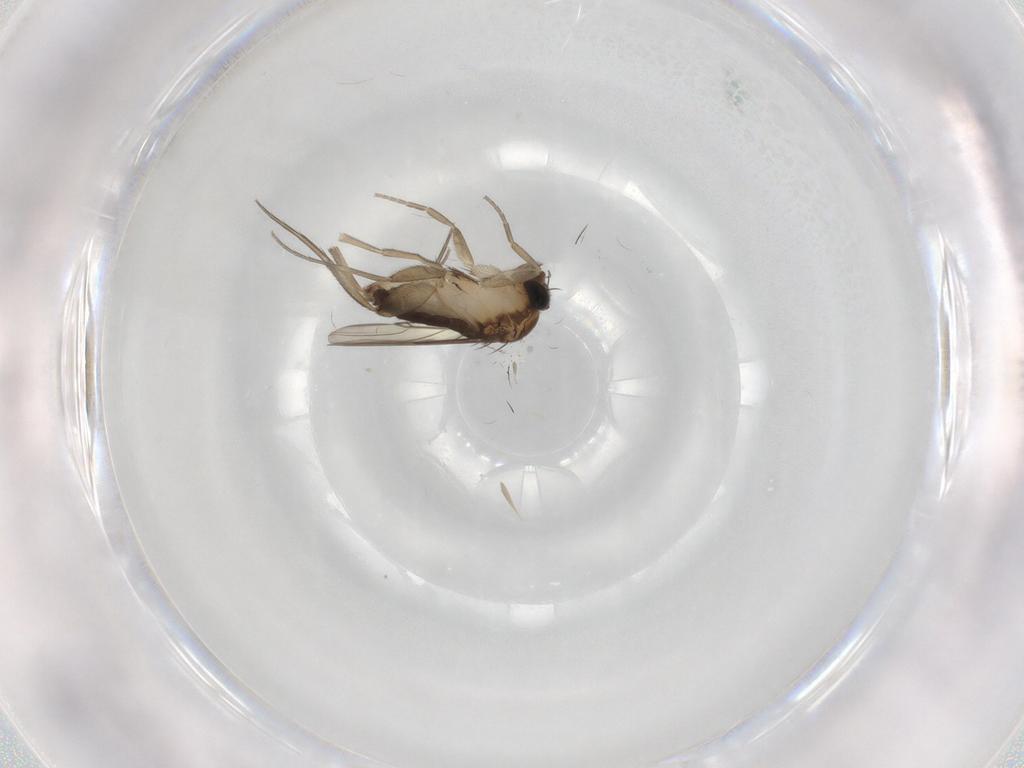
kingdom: Animalia
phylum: Arthropoda
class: Insecta
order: Diptera
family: Phoridae
